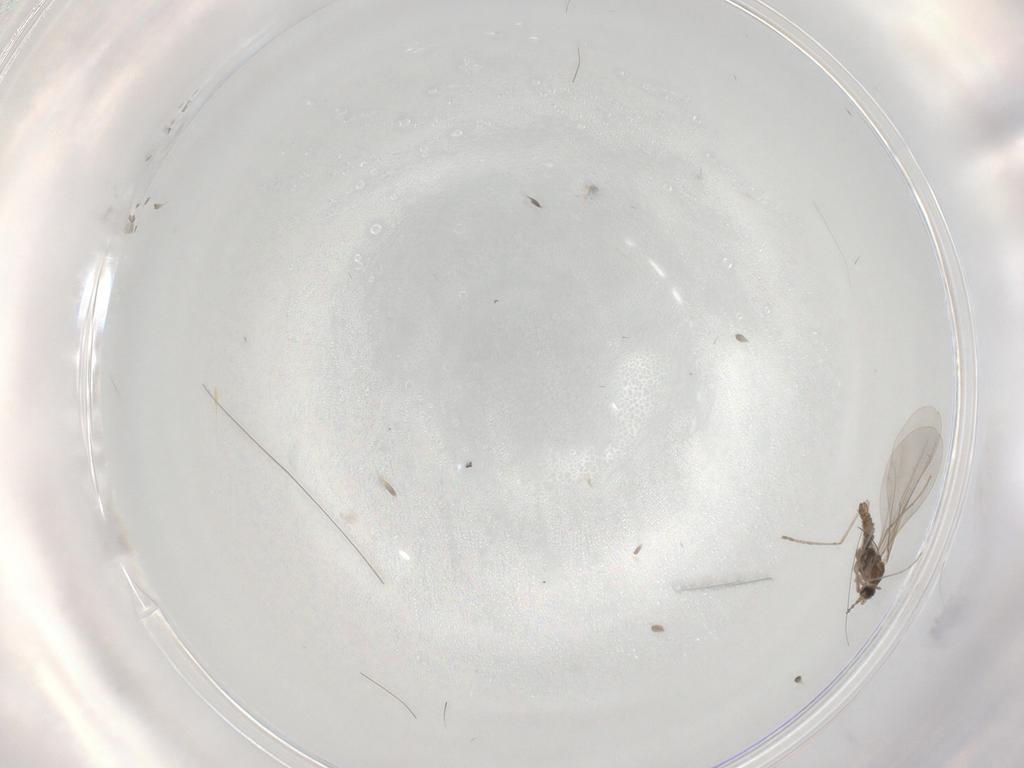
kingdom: Animalia
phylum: Arthropoda
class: Insecta
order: Diptera
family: Cecidomyiidae
